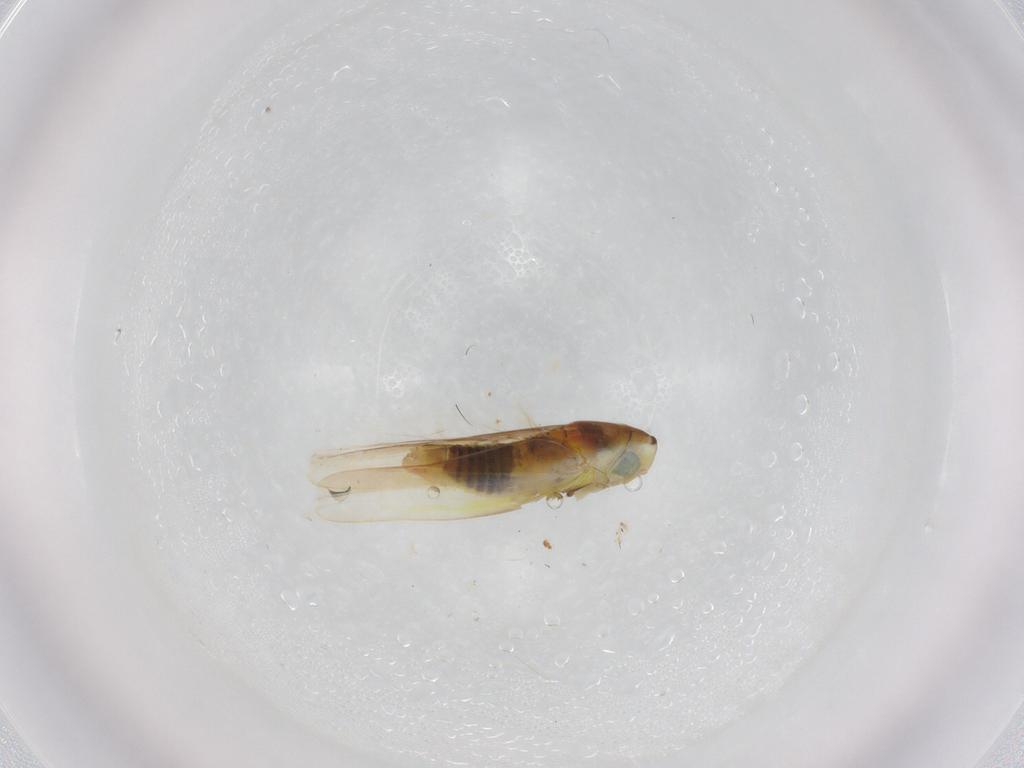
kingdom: Animalia
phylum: Arthropoda
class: Insecta
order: Hemiptera
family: Cicadellidae
